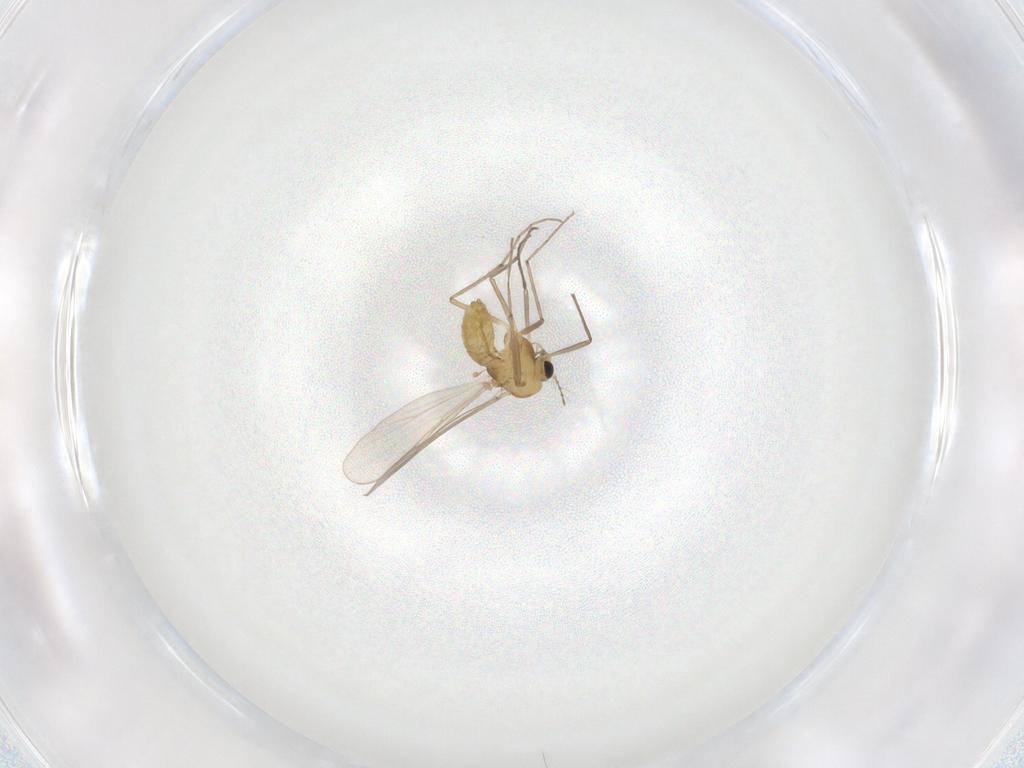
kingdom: Animalia
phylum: Arthropoda
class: Insecta
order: Diptera
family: Chironomidae
